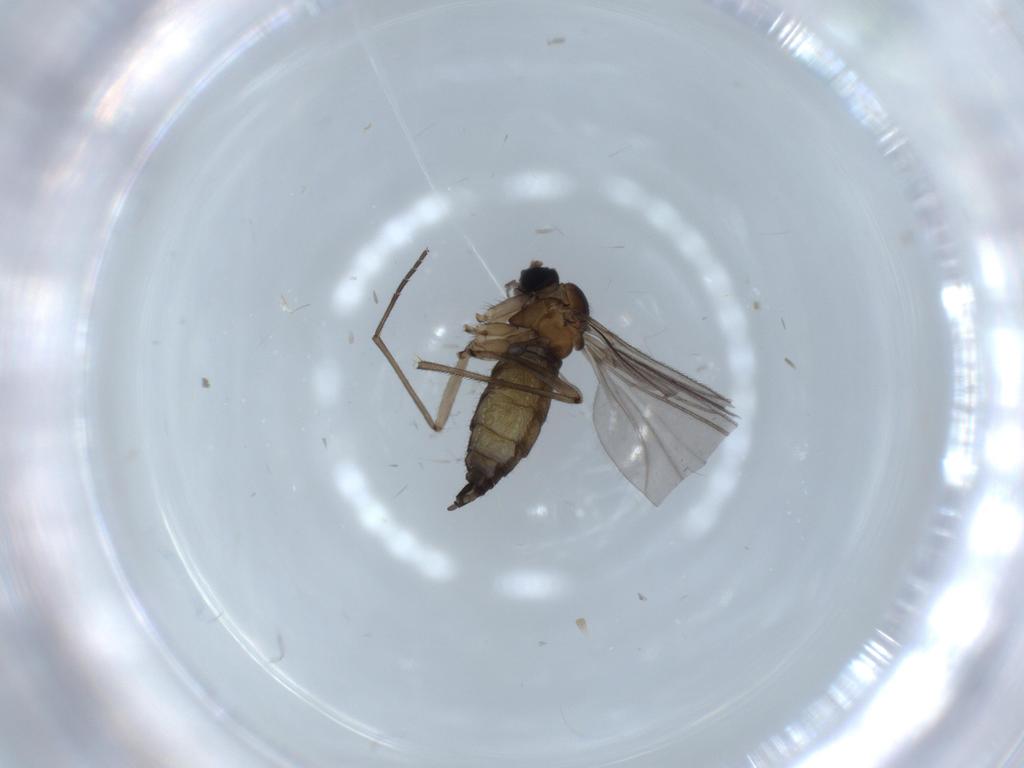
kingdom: Animalia
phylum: Arthropoda
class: Insecta
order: Diptera
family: Sciaridae
